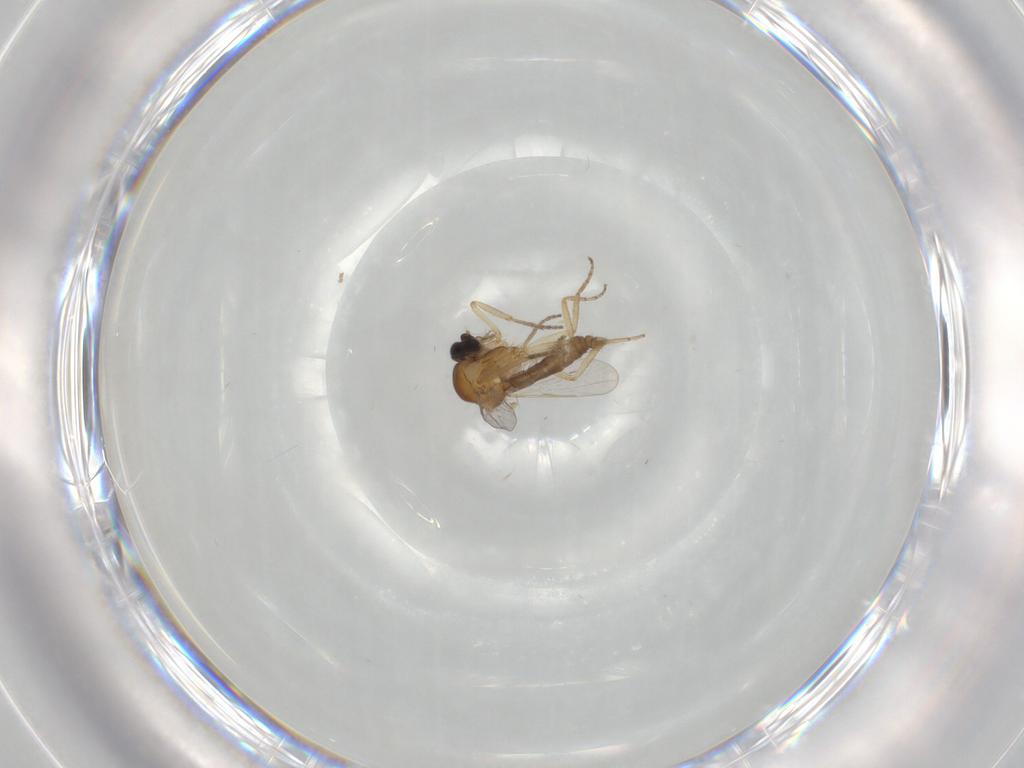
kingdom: Animalia
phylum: Arthropoda
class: Insecta
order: Diptera
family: Ceratopogonidae
